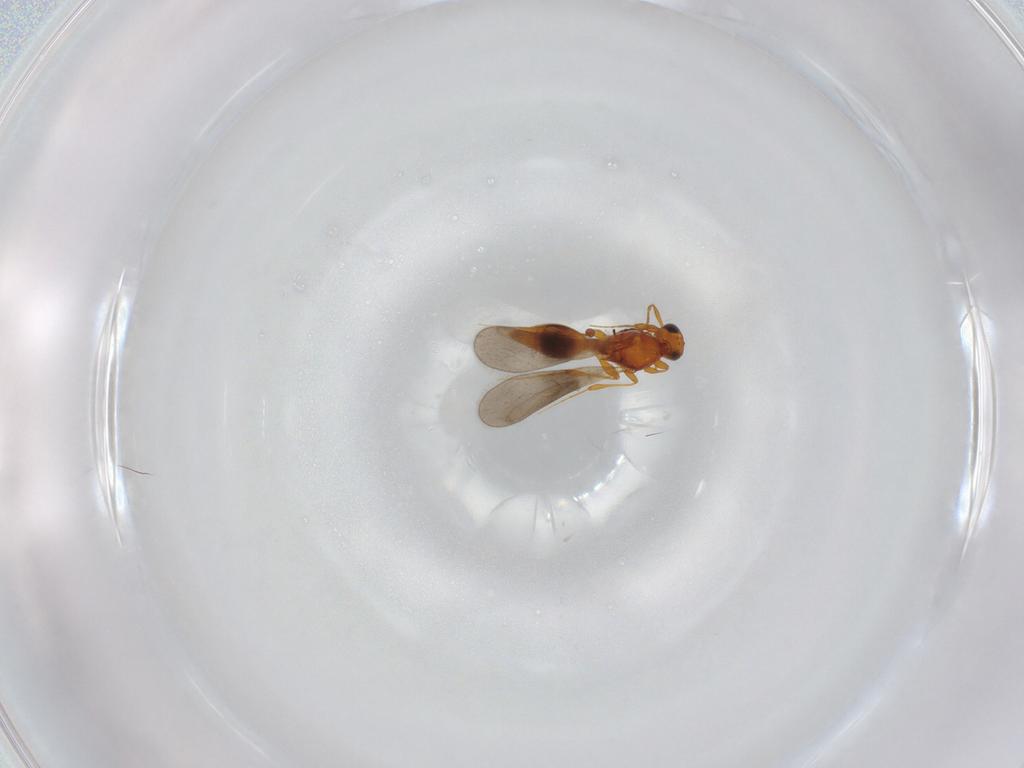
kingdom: Animalia
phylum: Arthropoda
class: Insecta
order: Hymenoptera
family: Platygastridae
